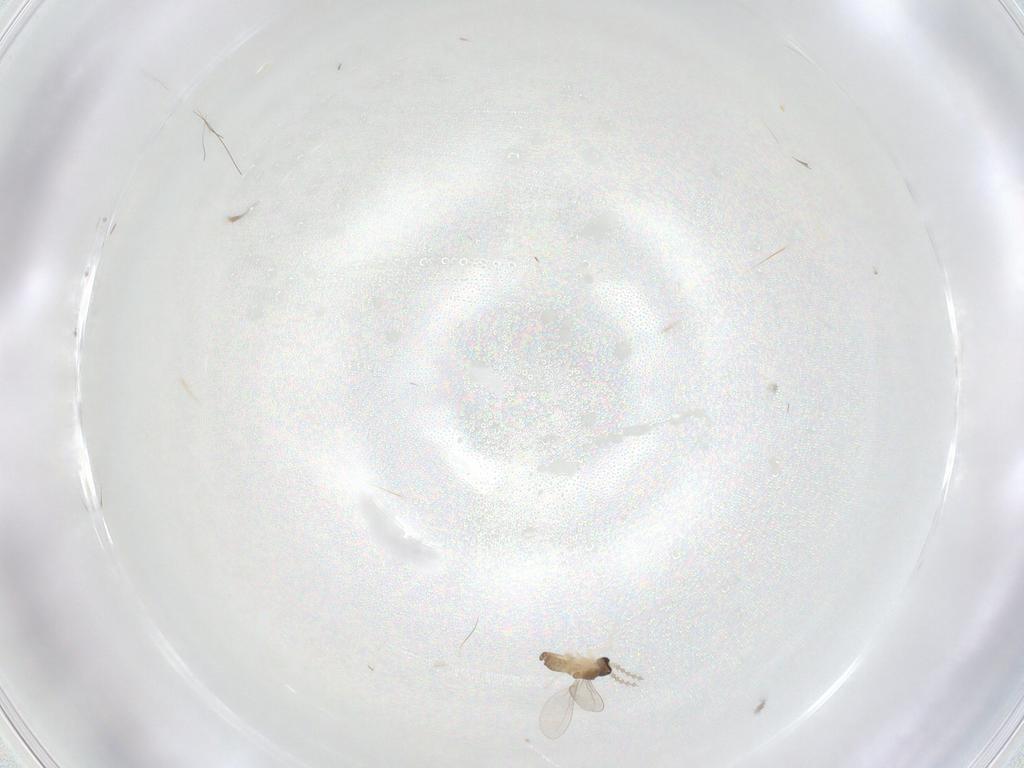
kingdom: Animalia
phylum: Arthropoda
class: Insecta
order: Diptera
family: Cecidomyiidae
